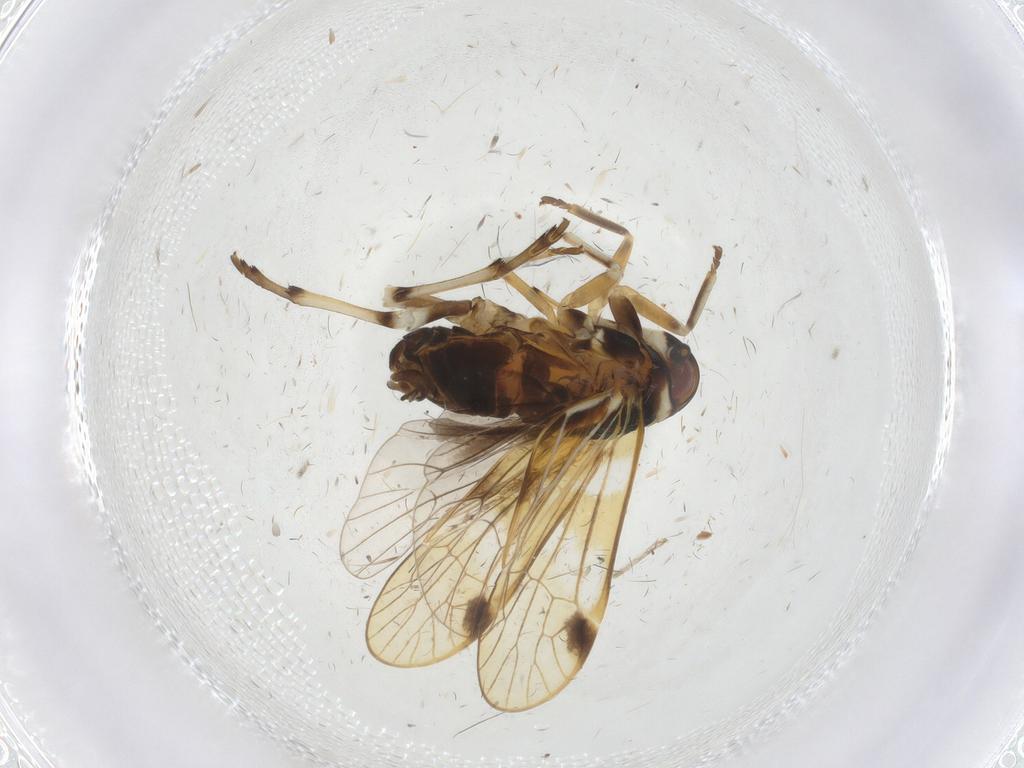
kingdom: Animalia
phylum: Arthropoda
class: Insecta
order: Hemiptera
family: Kinnaridae
